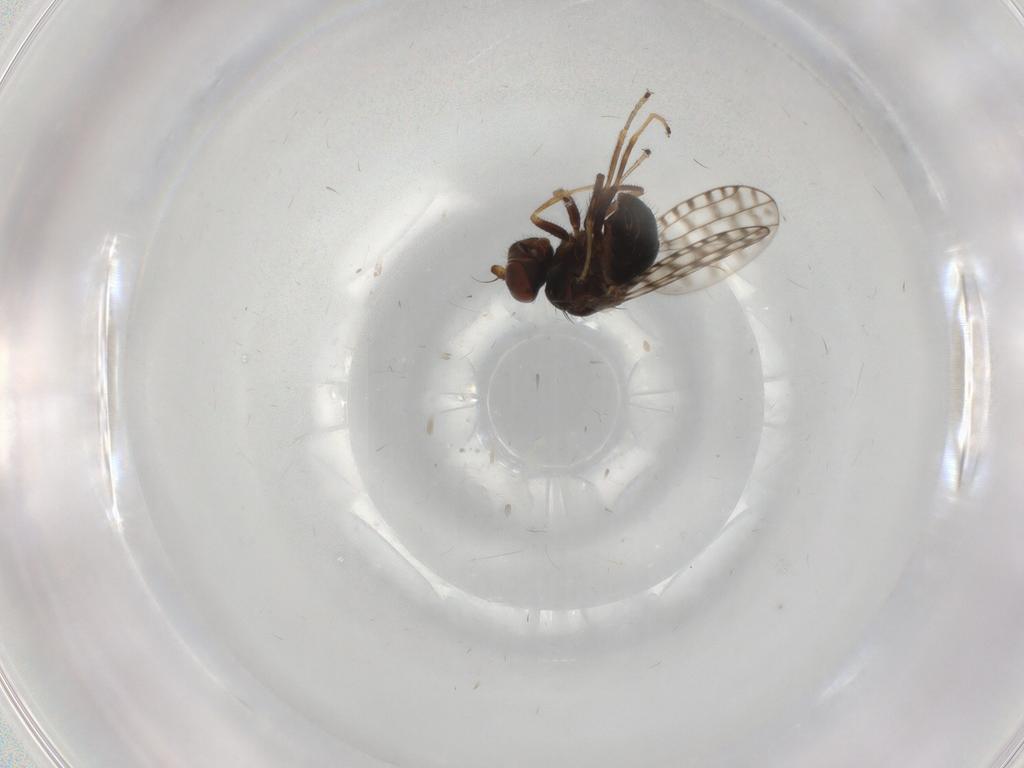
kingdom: Animalia
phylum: Arthropoda
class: Insecta
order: Diptera
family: Ephydridae
